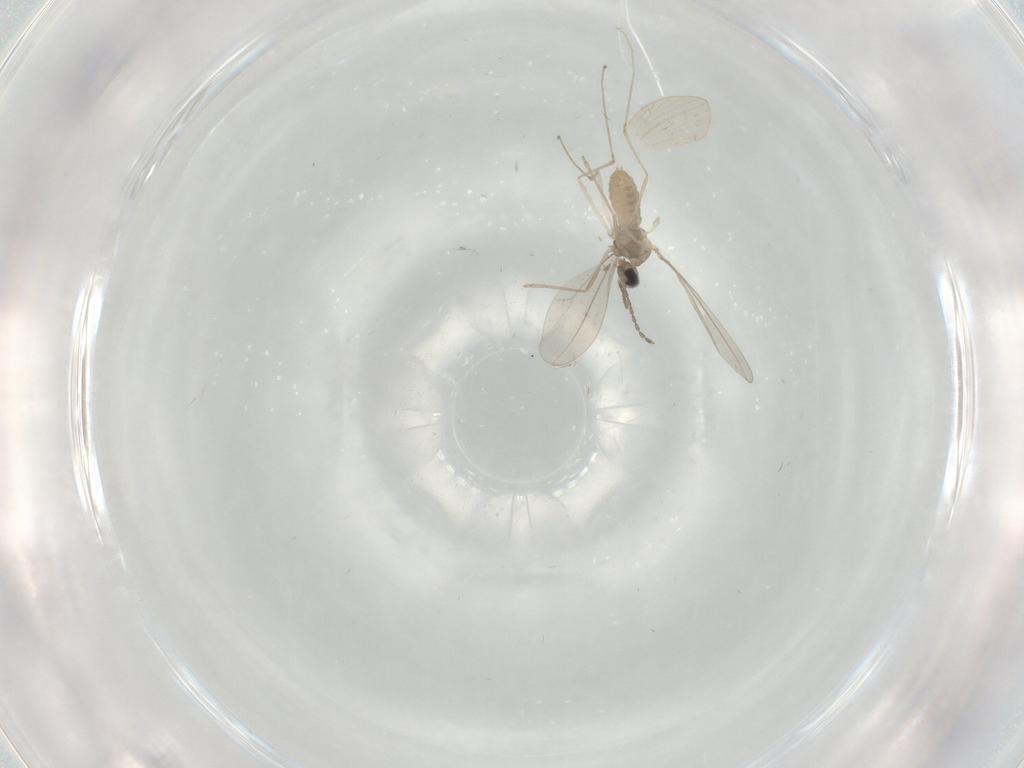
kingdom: Animalia
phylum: Arthropoda
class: Insecta
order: Diptera
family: Cecidomyiidae
